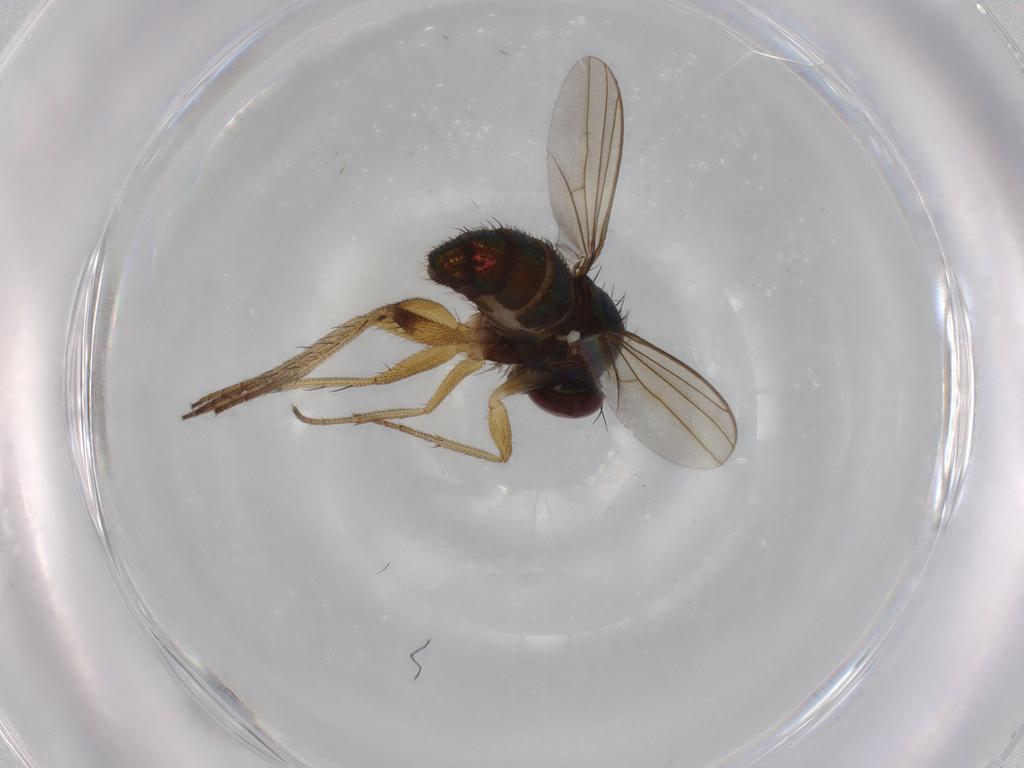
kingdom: Animalia
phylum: Arthropoda
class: Insecta
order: Diptera
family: Dolichopodidae
